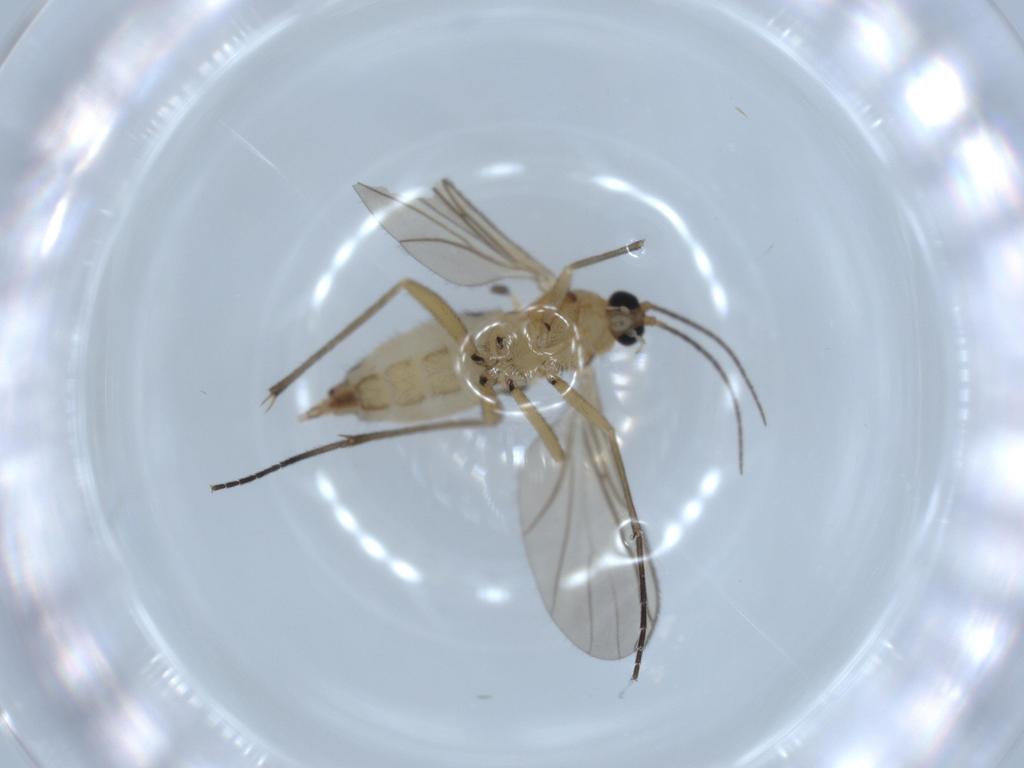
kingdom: Animalia
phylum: Arthropoda
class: Insecta
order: Diptera
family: Sciaridae
